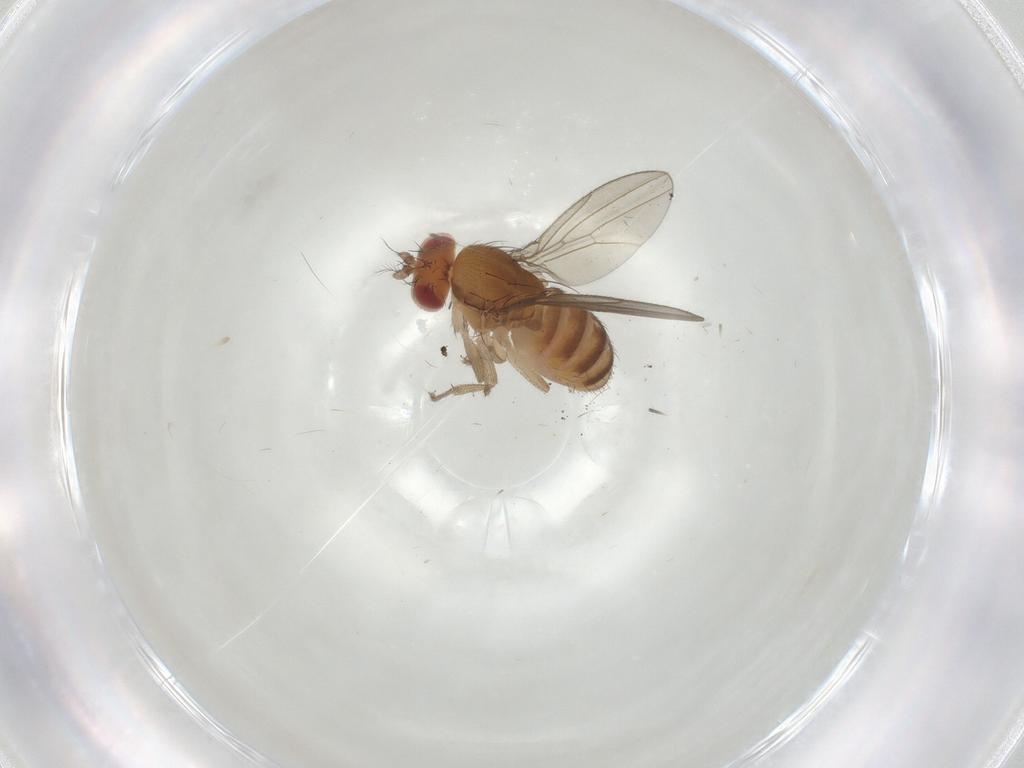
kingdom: Animalia
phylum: Arthropoda
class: Insecta
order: Diptera
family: Drosophilidae
